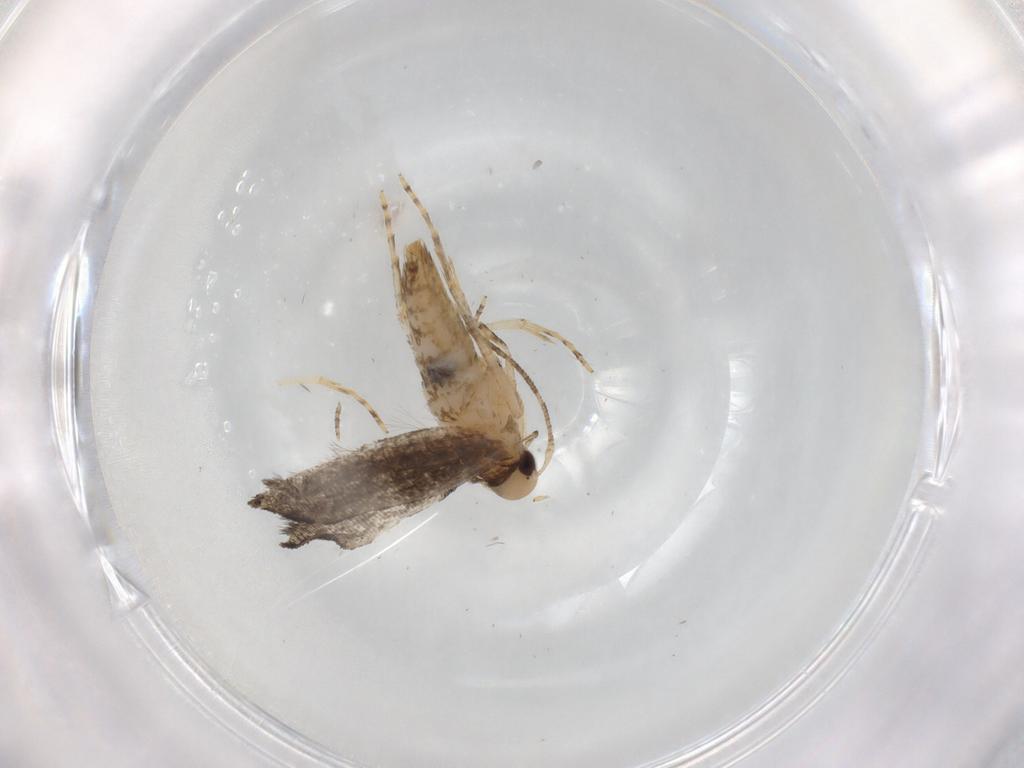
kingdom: Animalia
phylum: Arthropoda
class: Insecta
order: Lepidoptera
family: Cosmopterigidae
